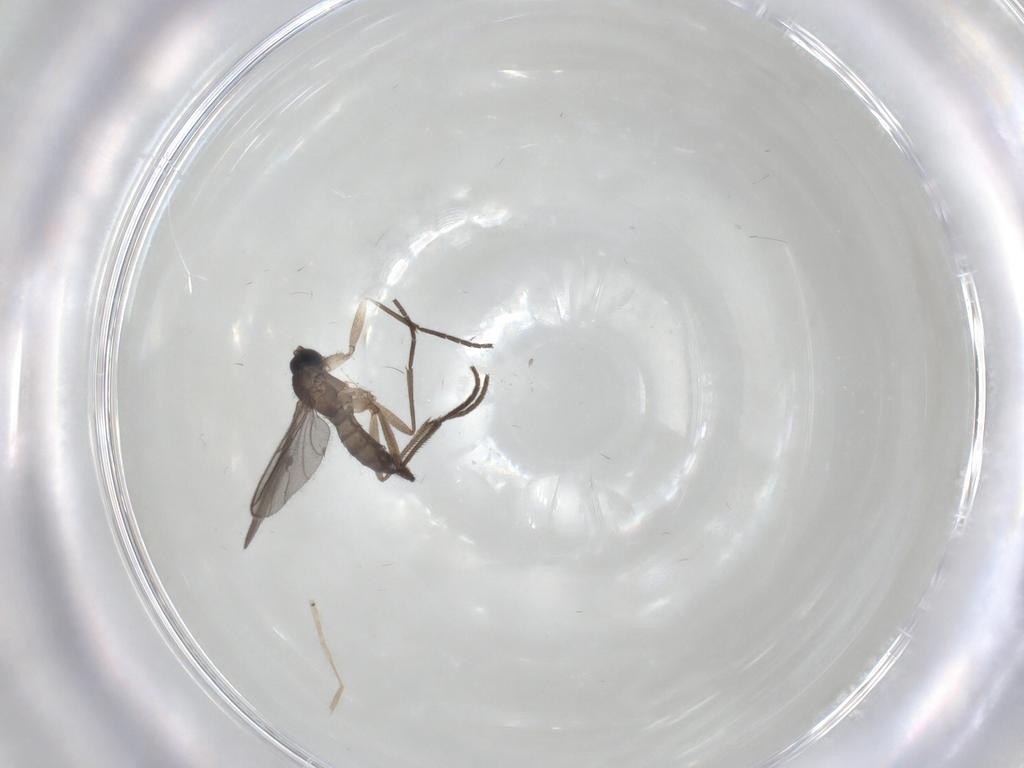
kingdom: Animalia
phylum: Arthropoda
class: Insecta
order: Diptera
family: Sciaridae
